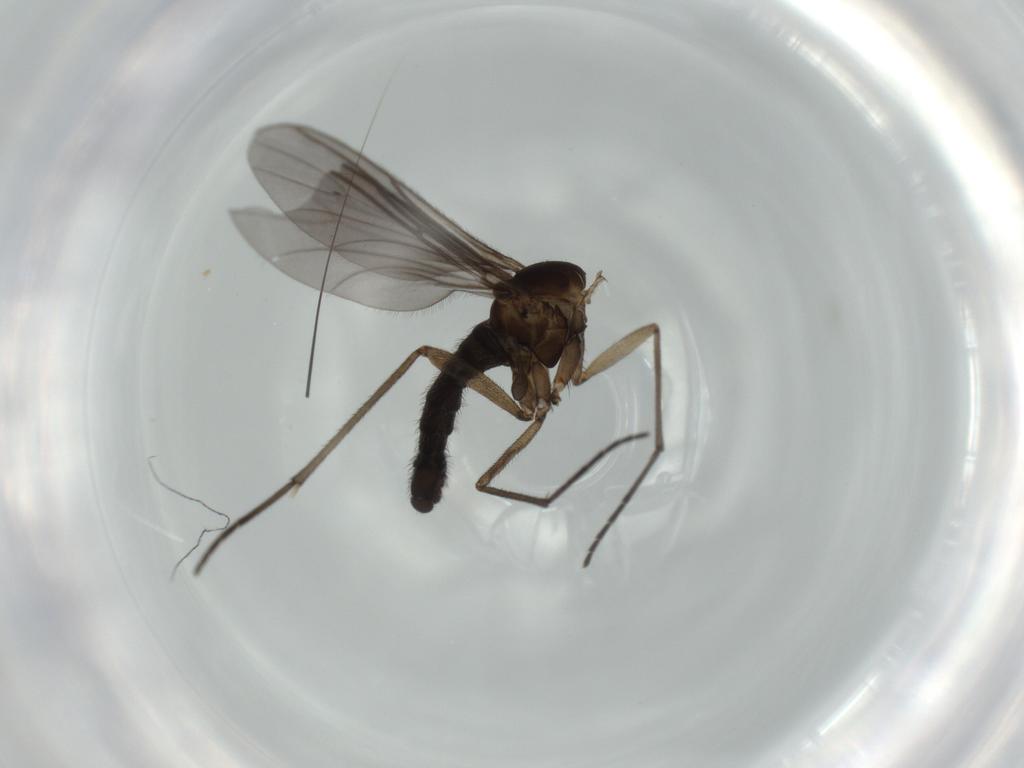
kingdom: Animalia
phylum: Arthropoda
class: Insecta
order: Diptera
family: Sciaridae
